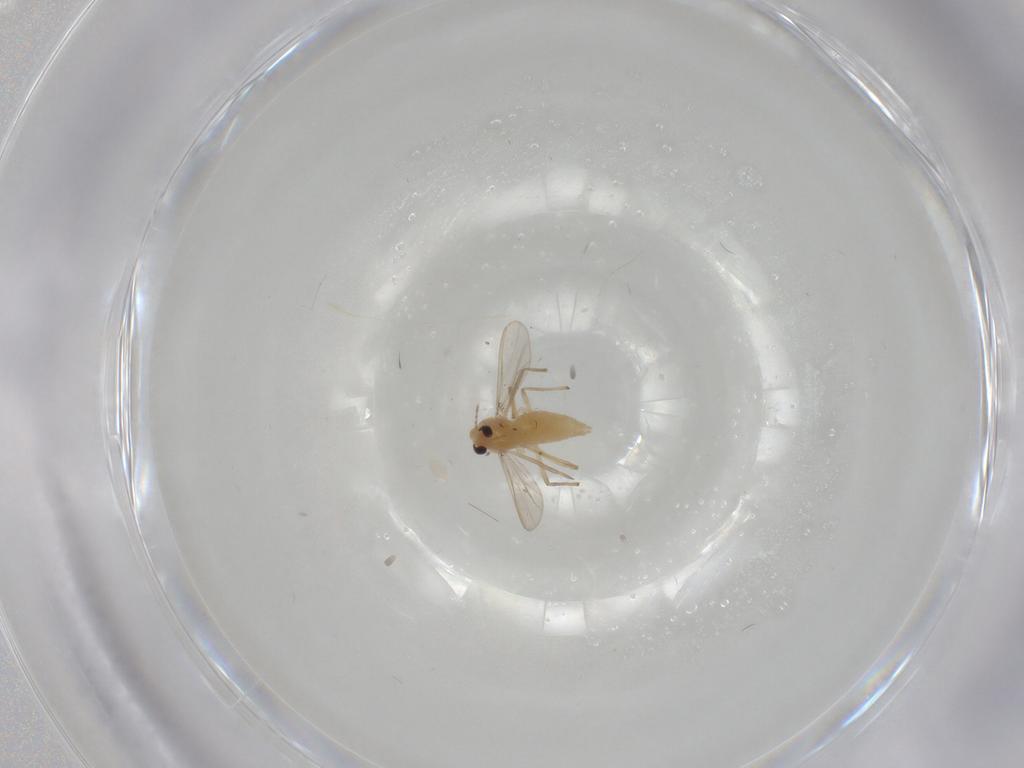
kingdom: Animalia
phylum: Arthropoda
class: Insecta
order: Diptera
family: Chironomidae
